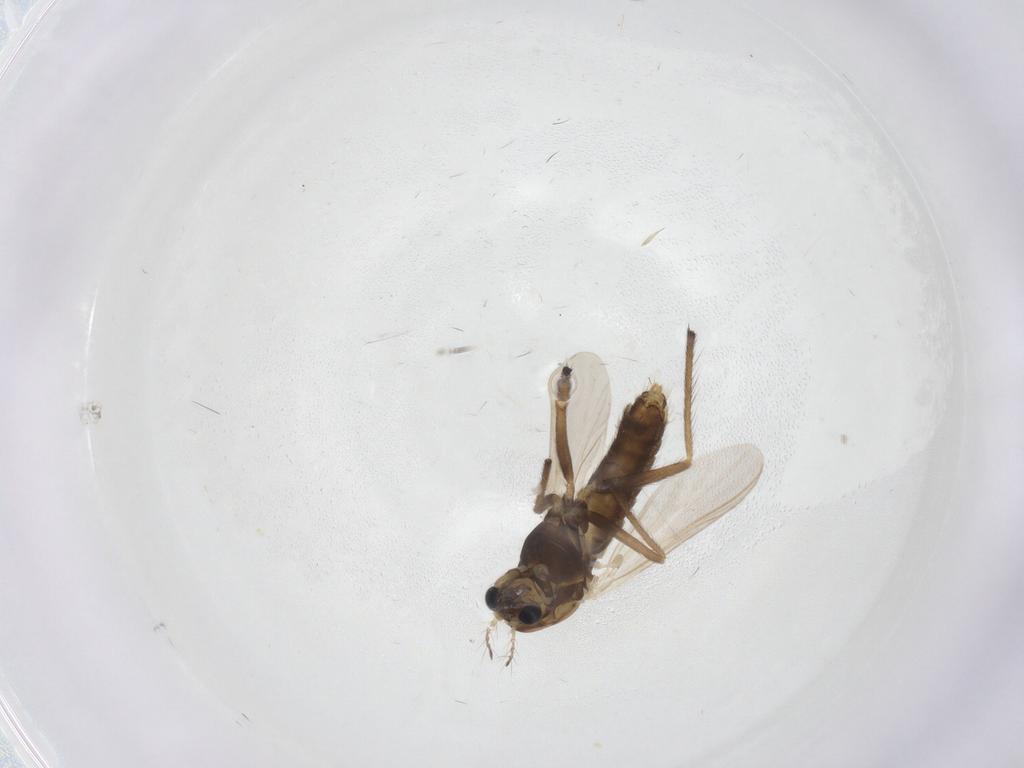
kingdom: Animalia
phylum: Arthropoda
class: Insecta
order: Diptera
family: Chironomidae
